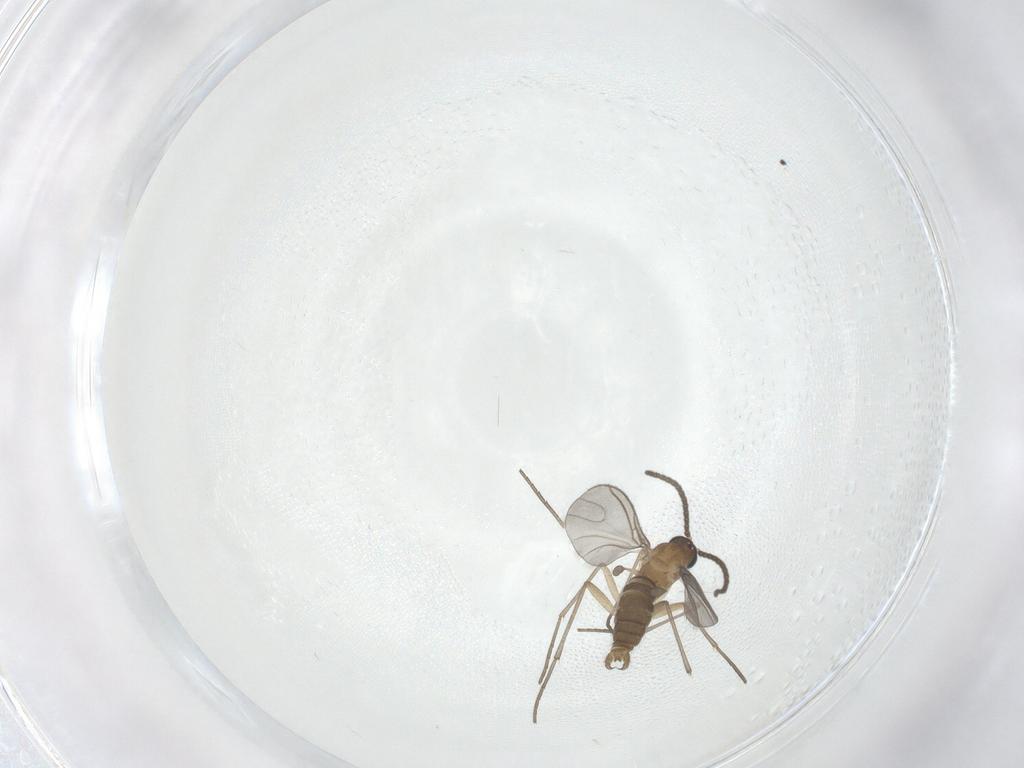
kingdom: Animalia
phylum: Arthropoda
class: Insecta
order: Diptera
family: Sciaridae
